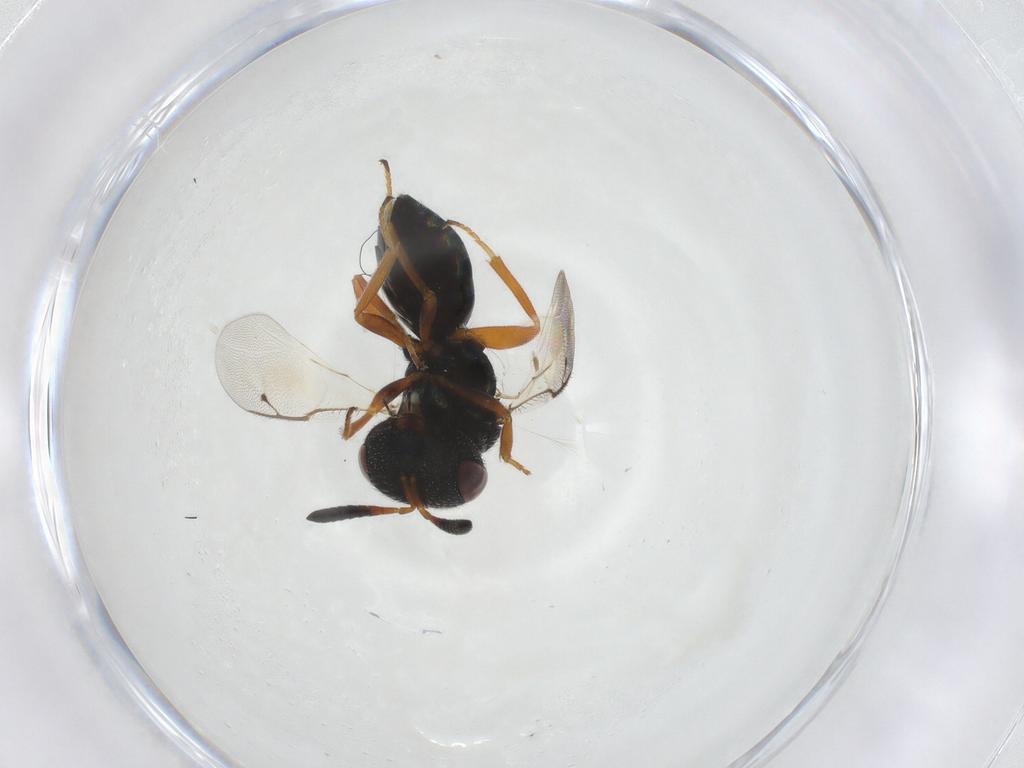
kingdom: Animalia
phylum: Arthropoda
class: Insecta
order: Hymenoptera
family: Pteromalidae
